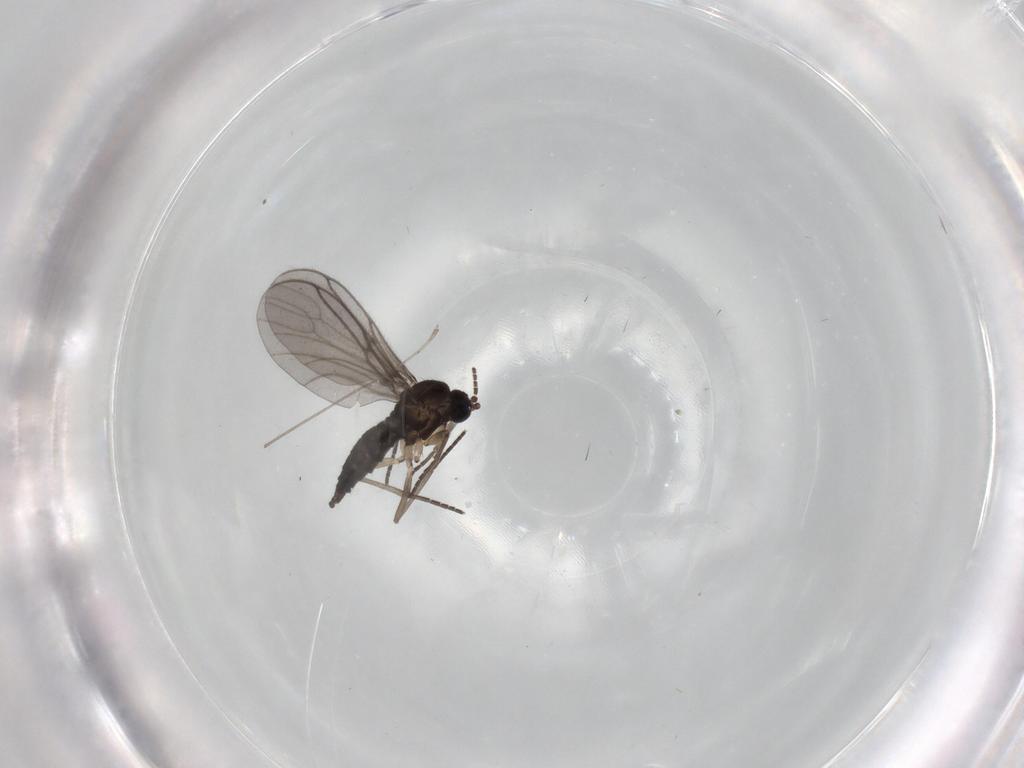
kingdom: Animalia
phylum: Arthropoda
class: Insecta
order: Diptera
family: Sciaridae
